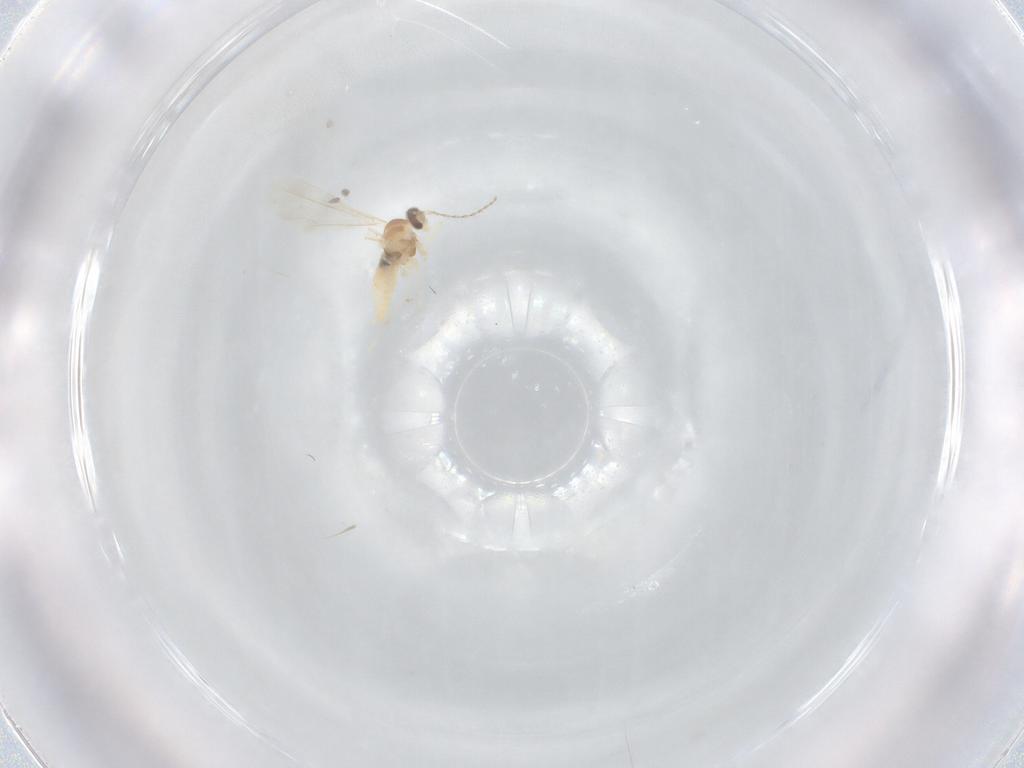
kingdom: Animalia
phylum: Arthropoda
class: Insecta
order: Diptera
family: Cecidomyiidae
